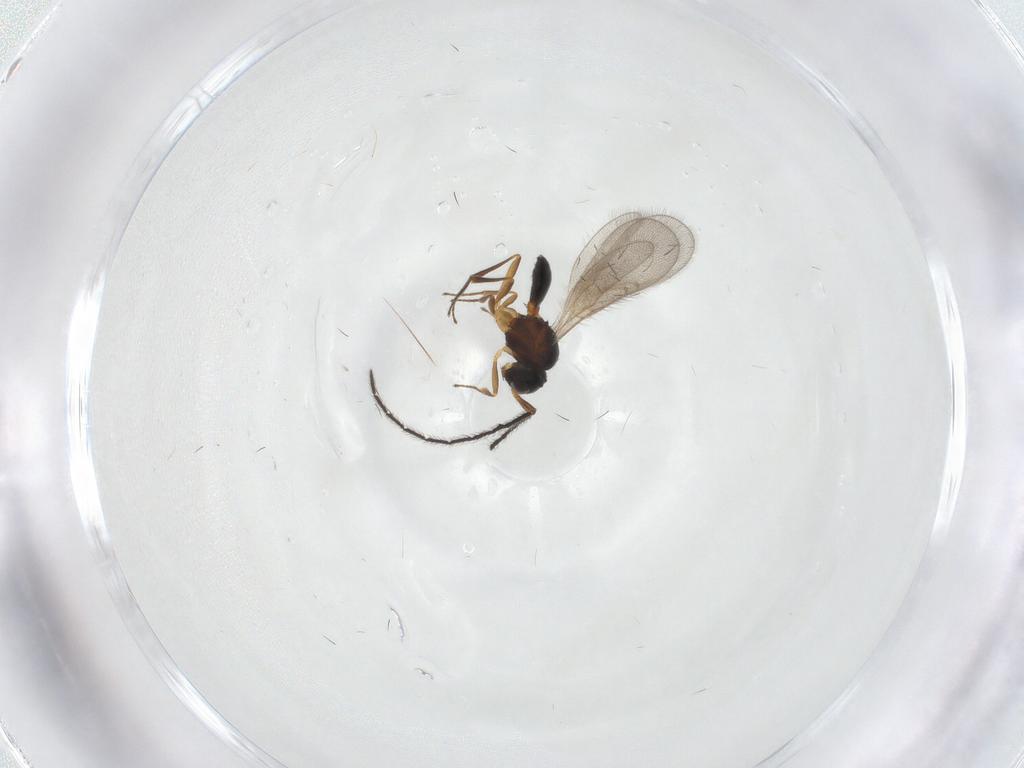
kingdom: Animalia
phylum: Arthropoda
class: Insecta
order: Hymenoptera
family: Scelionidae
